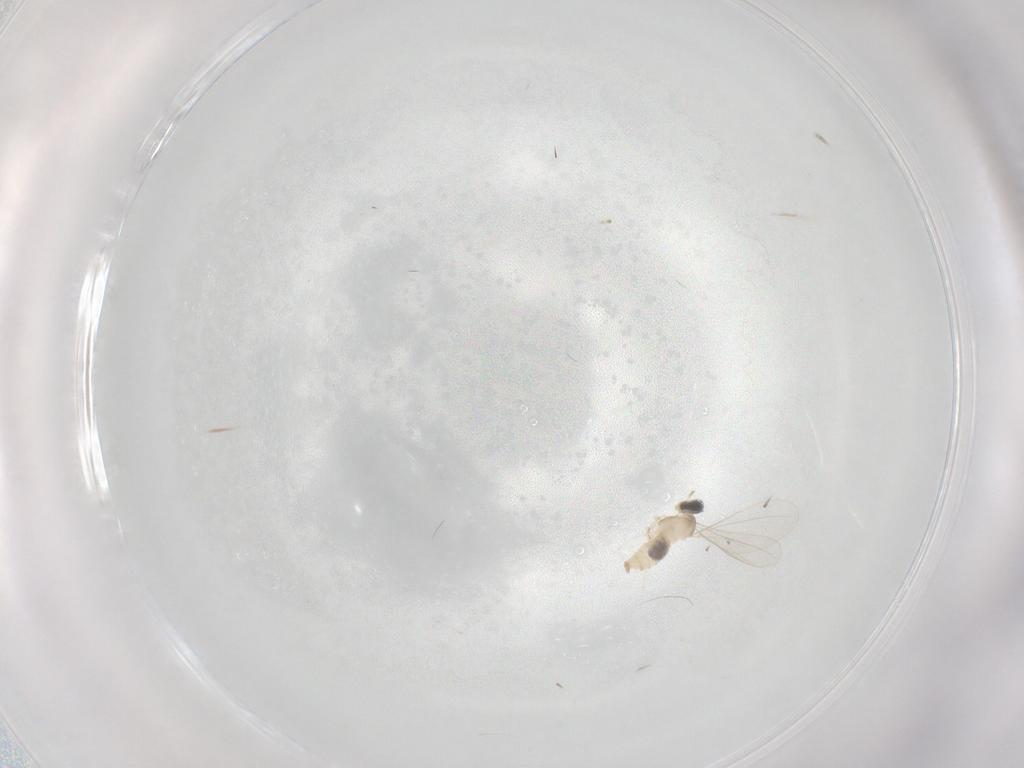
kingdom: Animalia
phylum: Arthropoda
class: Insecta
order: Diptera
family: Cecidomyiidae
